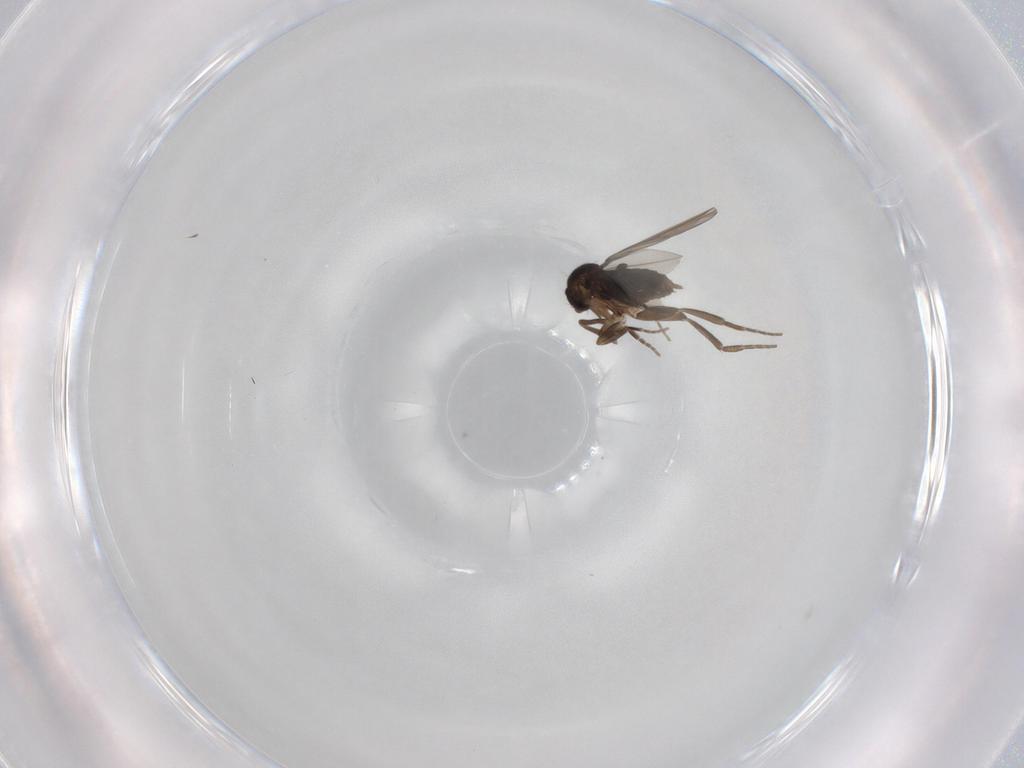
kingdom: Animalia
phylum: Arthropoda
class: Insecta
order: Diptera
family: Phoridae
